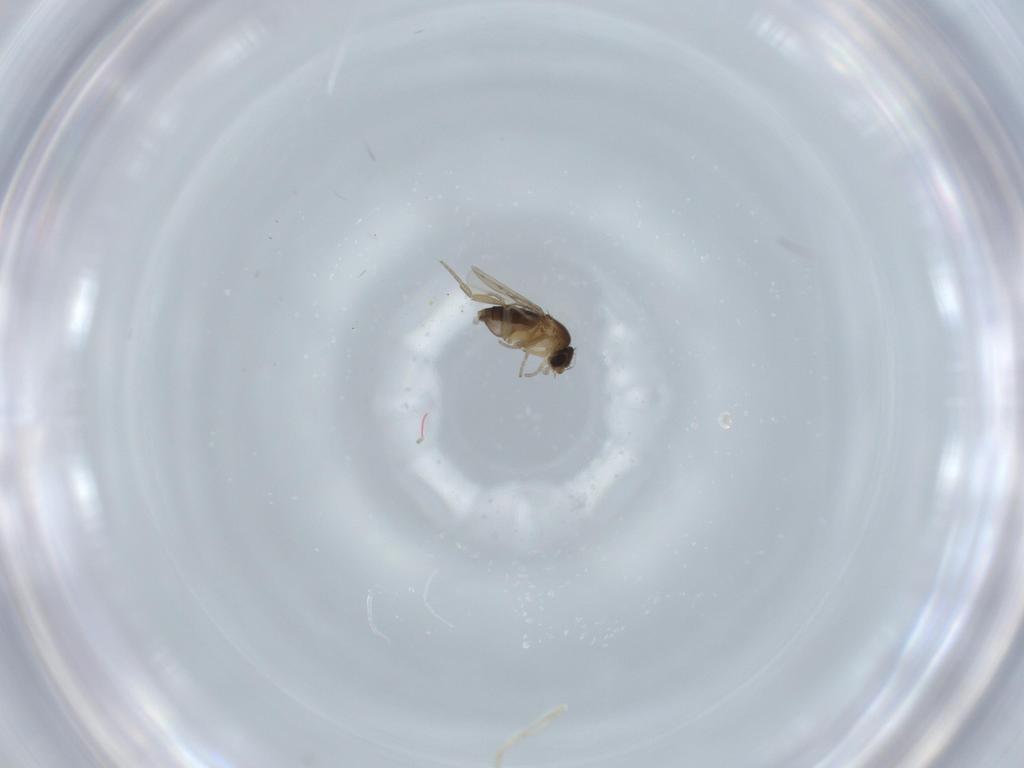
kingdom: Animalia
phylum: Arthropoda
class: Insecta
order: Diptera
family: Phoridae
